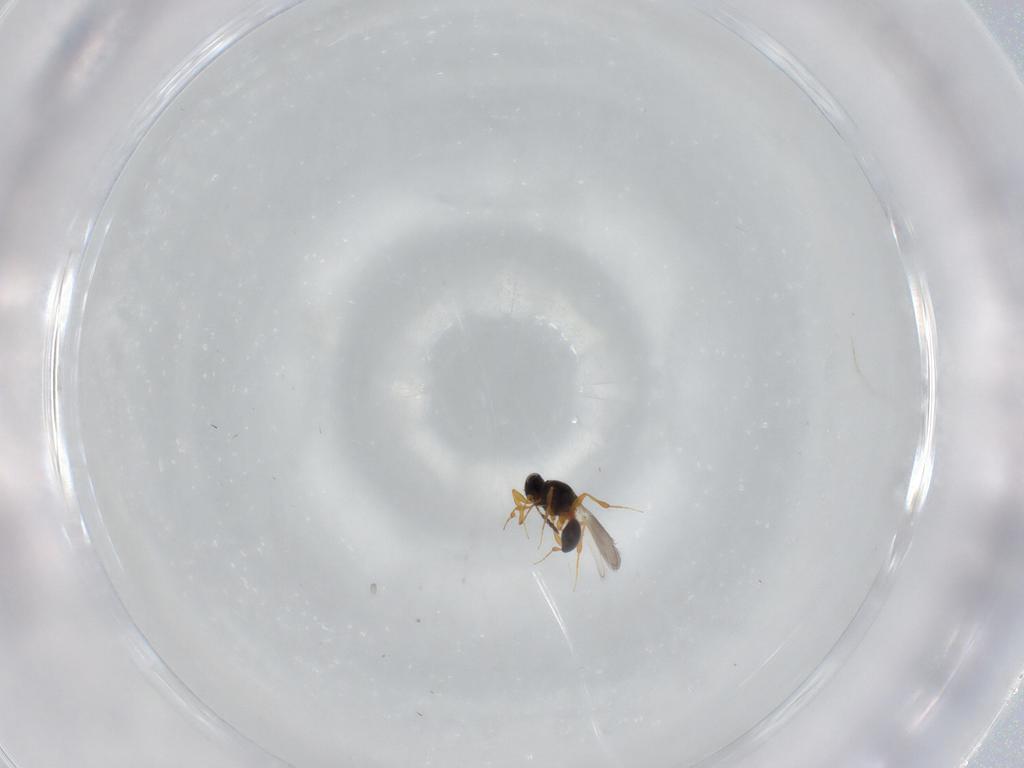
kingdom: Animalia
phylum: Arthropoda
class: Insecta
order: Hymenoptera
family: Platygastridae
